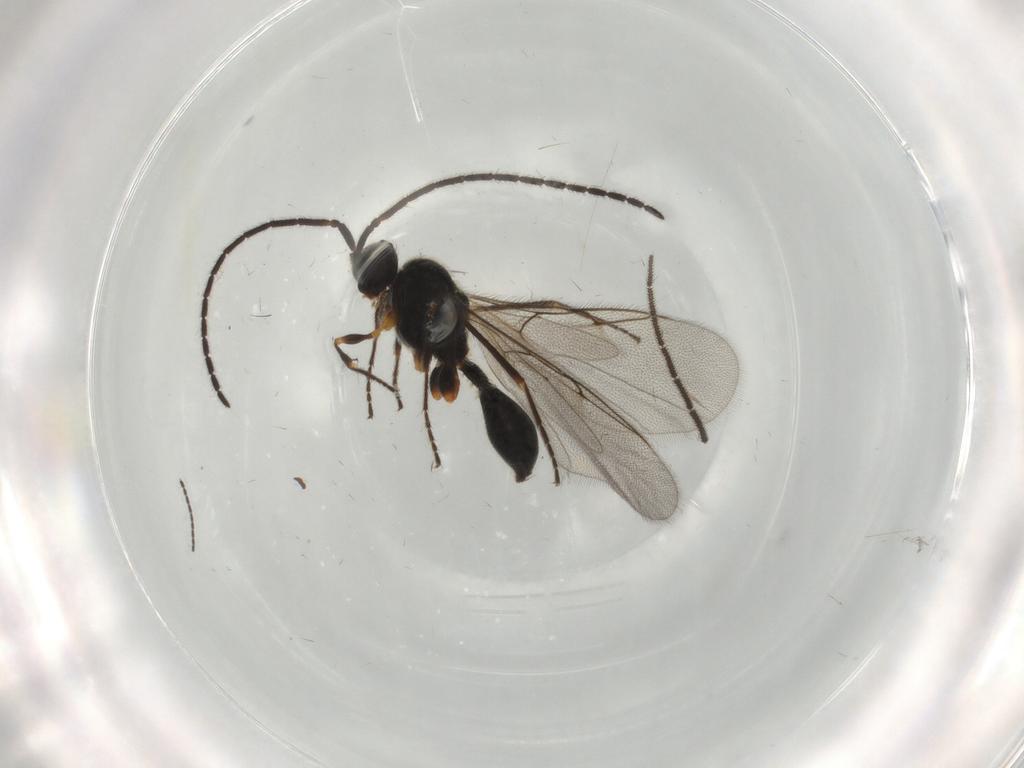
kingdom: Animalia
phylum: Arthropoda
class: Insecta
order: Hymenoptera
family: Diapriidae
